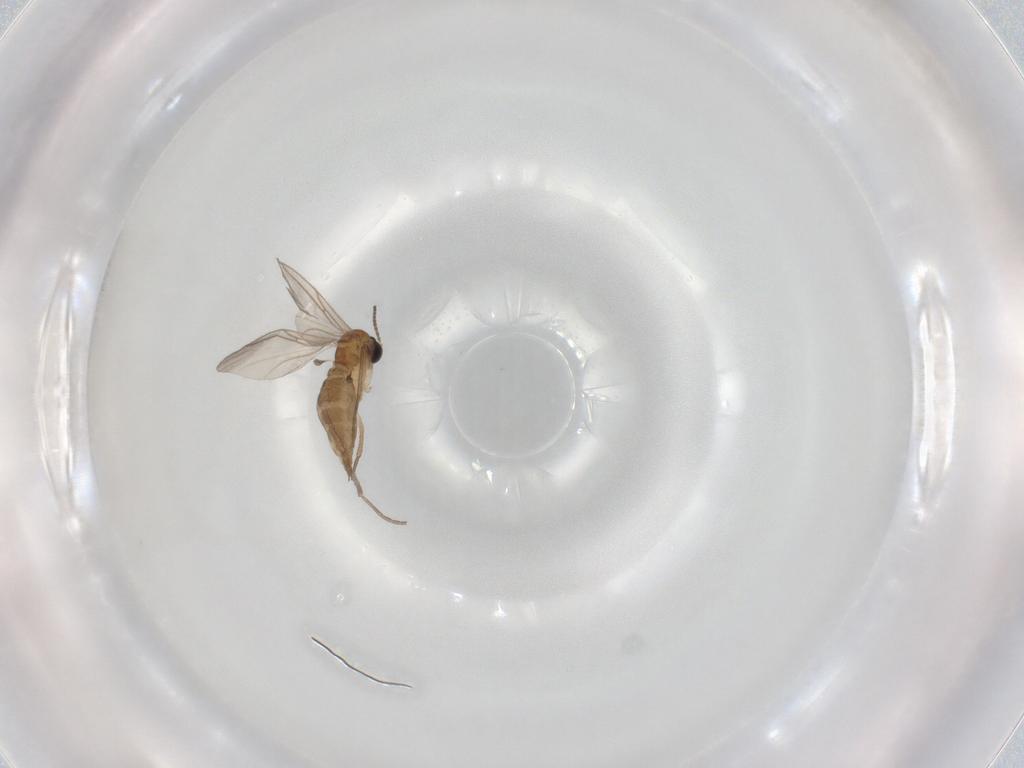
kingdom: Animalia
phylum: Arthropoda
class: Insecta
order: Diptera
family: Sciaridae
